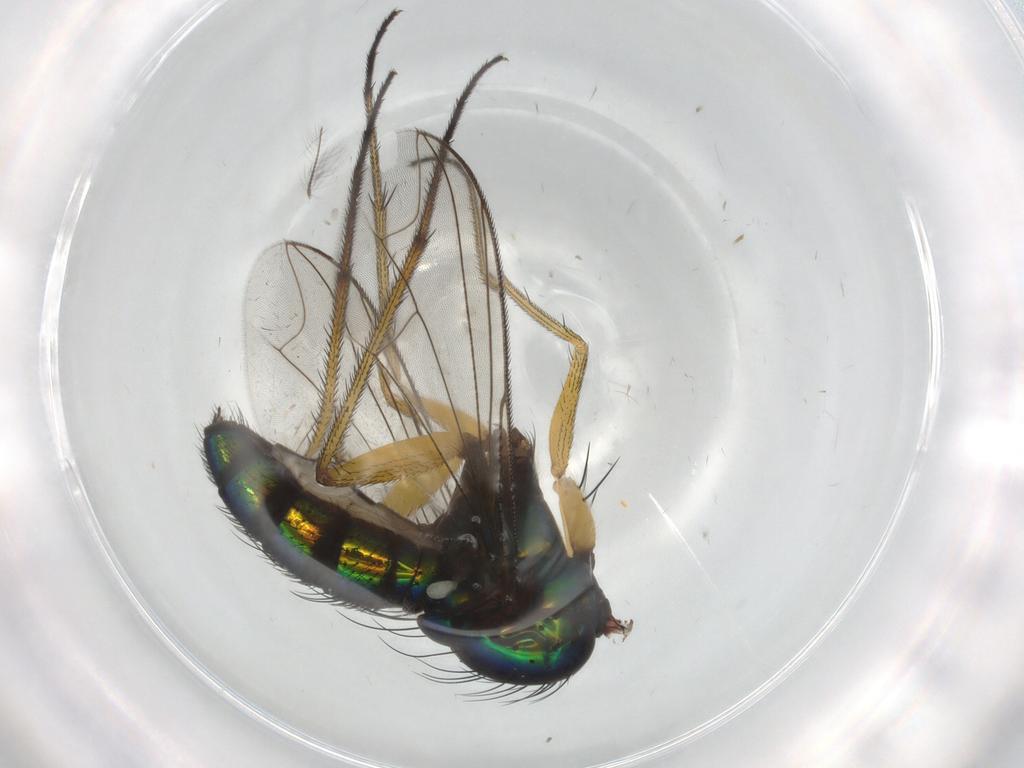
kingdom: Animalia
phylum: Arthropoda
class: Insecta
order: Diptera
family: Dolichopodidae
